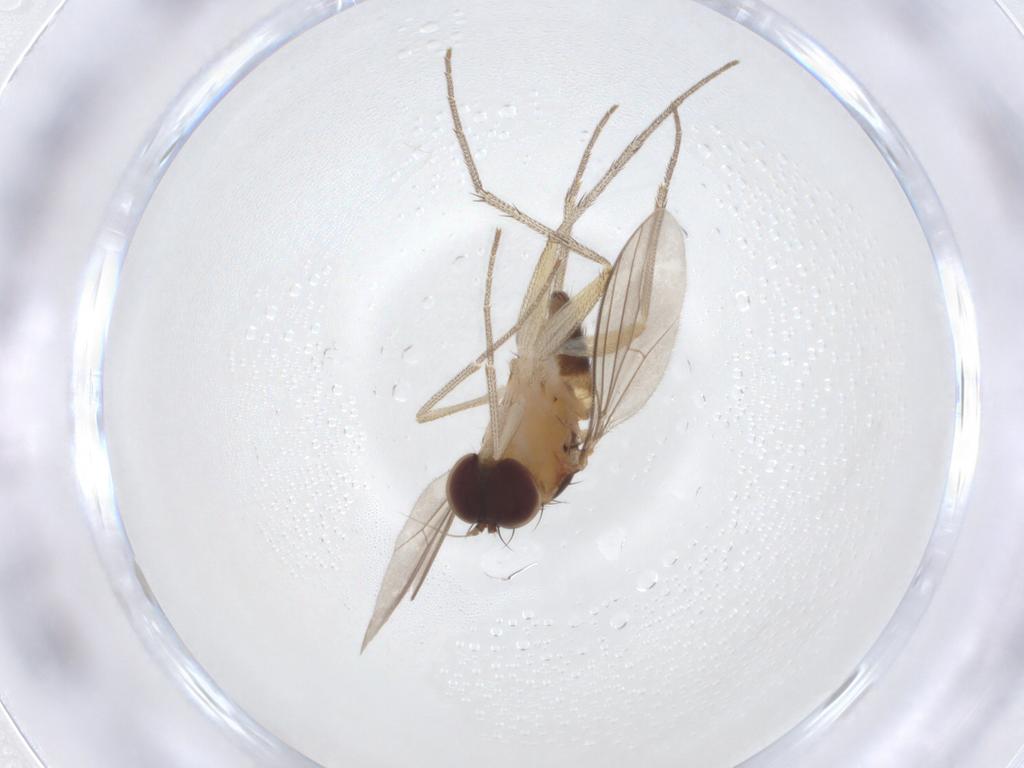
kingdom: Animalia
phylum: Arthropoda
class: Insecta
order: Diptera
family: Dolichopodidae
